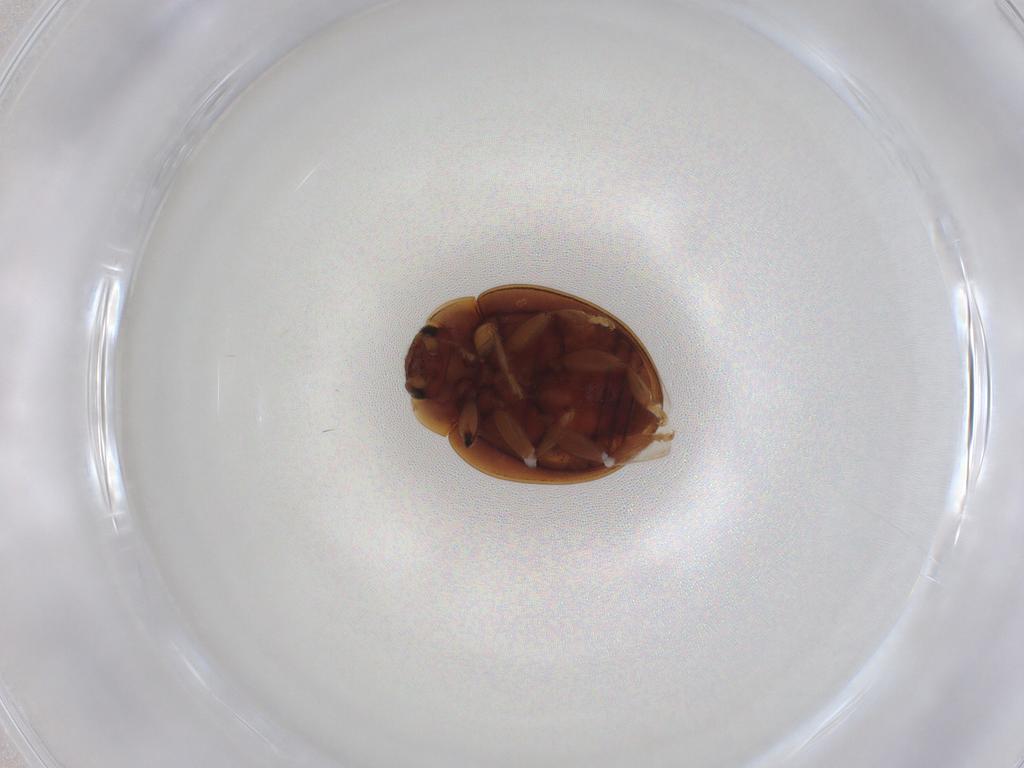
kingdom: Animalia
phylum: Arthropoda
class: Insecta
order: Coleoptera
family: Coccinellidae
